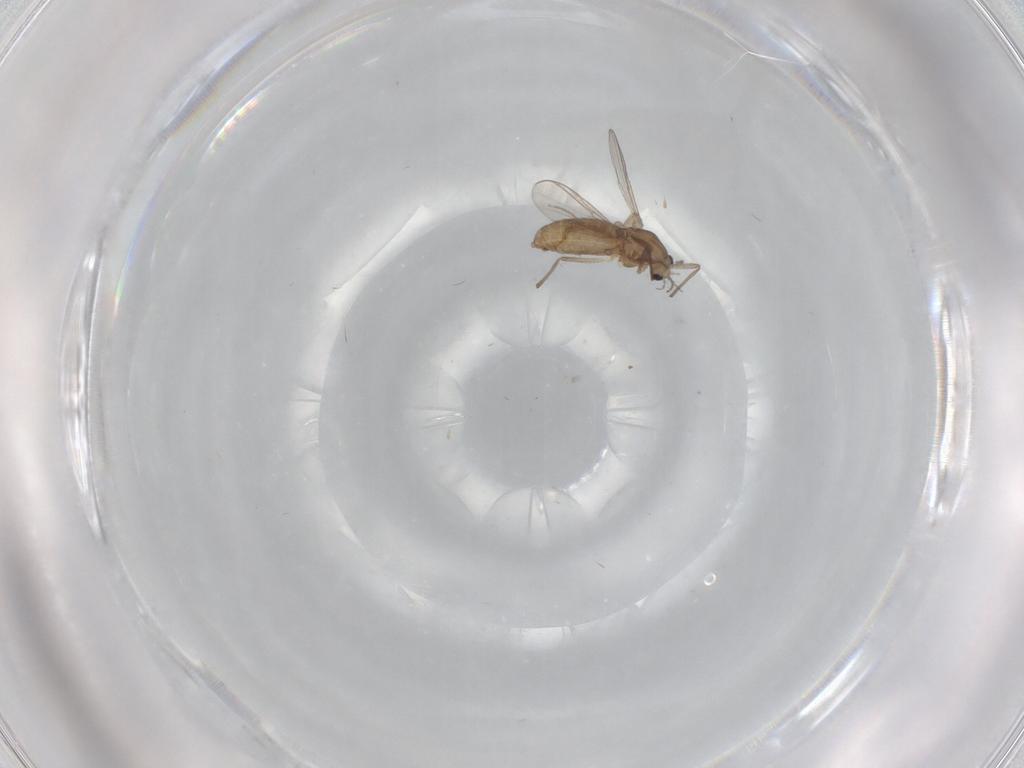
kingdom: Animalia
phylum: Arthropoda
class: Insecta
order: Diptera
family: Chironomidae
